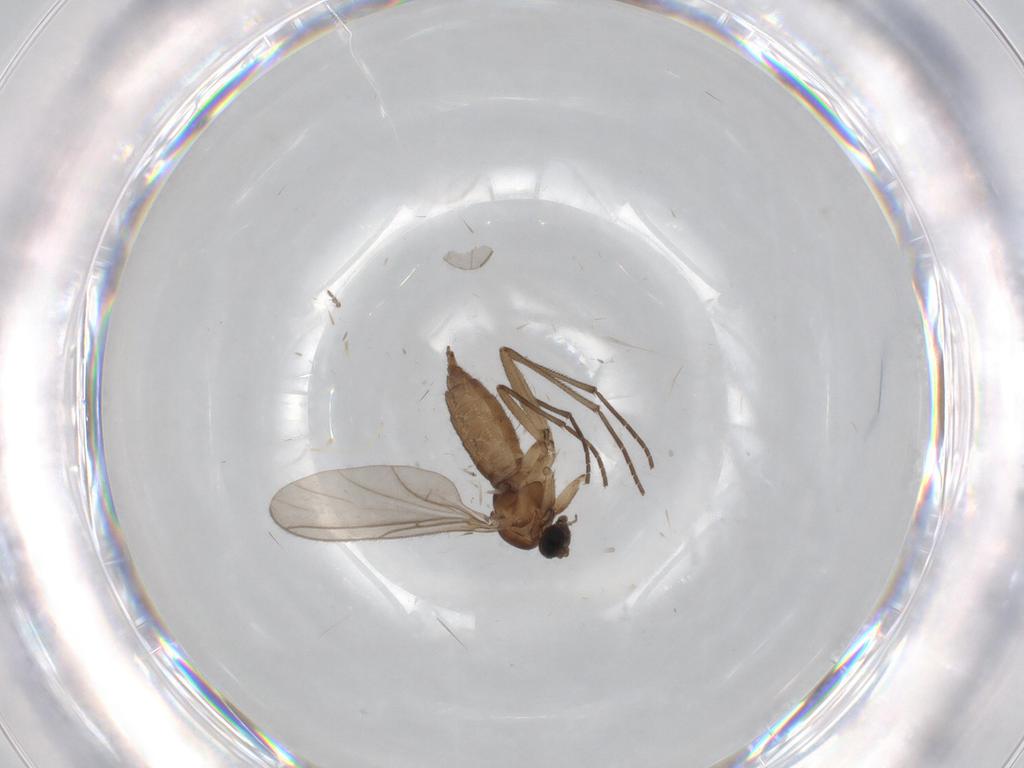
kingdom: Animalia
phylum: Arthropoda
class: Insecta
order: Diptera
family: Sciaridae
